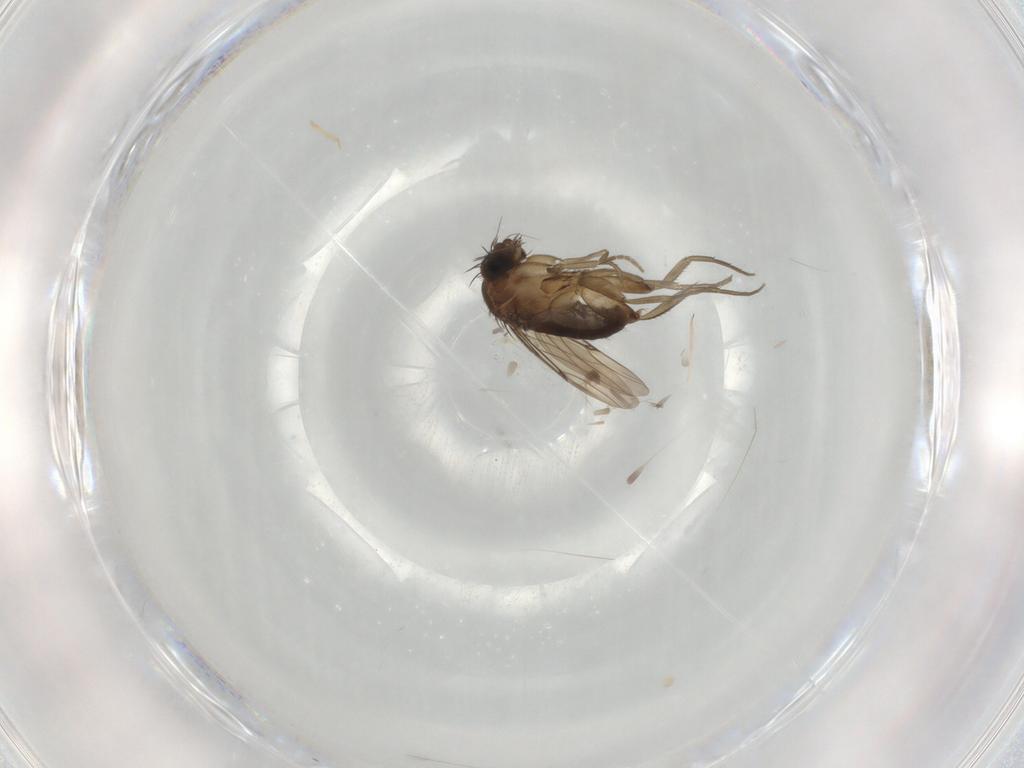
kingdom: Animalia
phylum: Arthropoda
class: Insecta
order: Diptera
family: Phoridae
